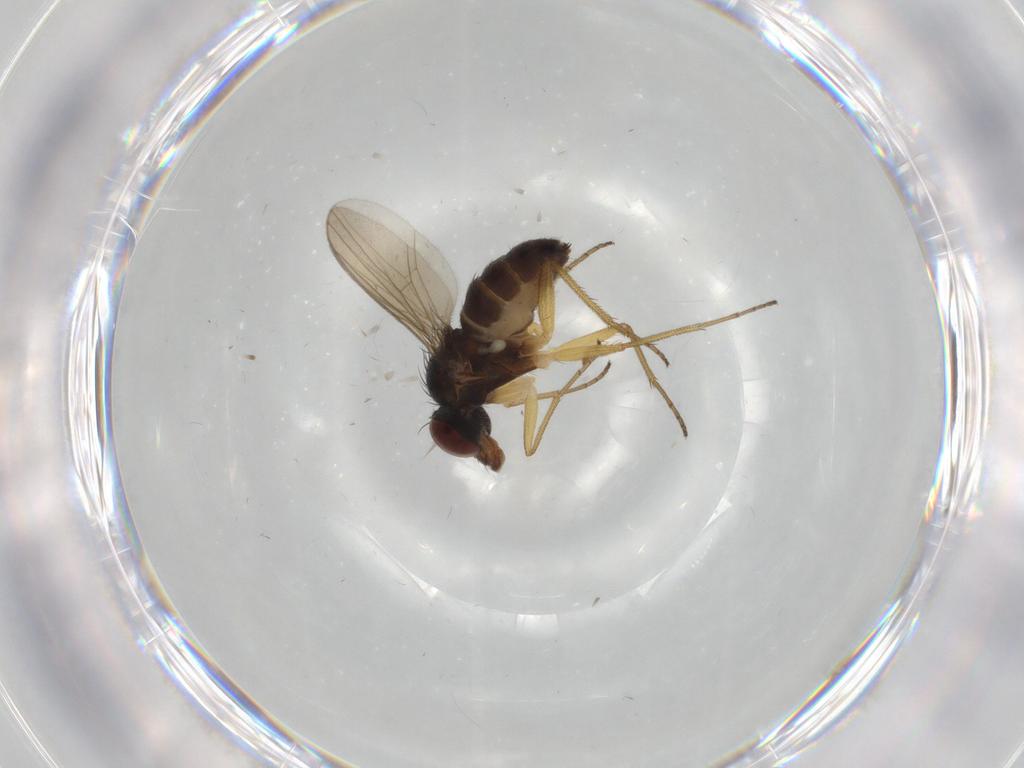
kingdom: Animalia
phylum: Arthropoda
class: Insecta
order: Diptera
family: Dolichopodidae
